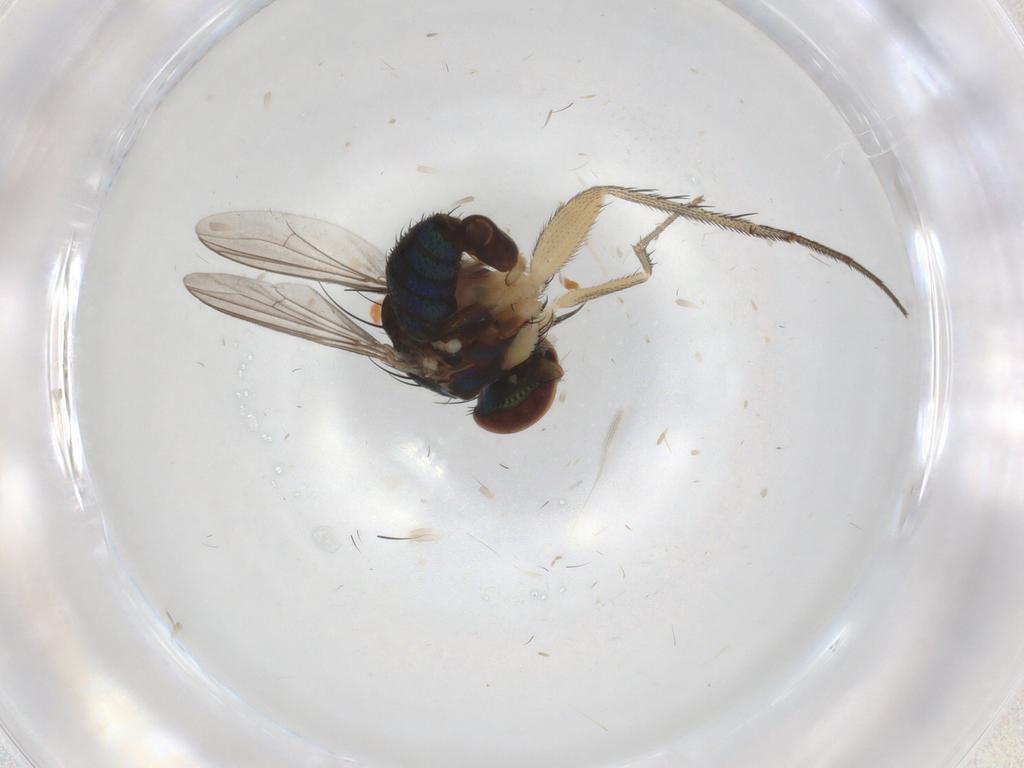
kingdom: Animalia
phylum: Arthropoda
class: Insecta
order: Diptera
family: Dolichopodidae
